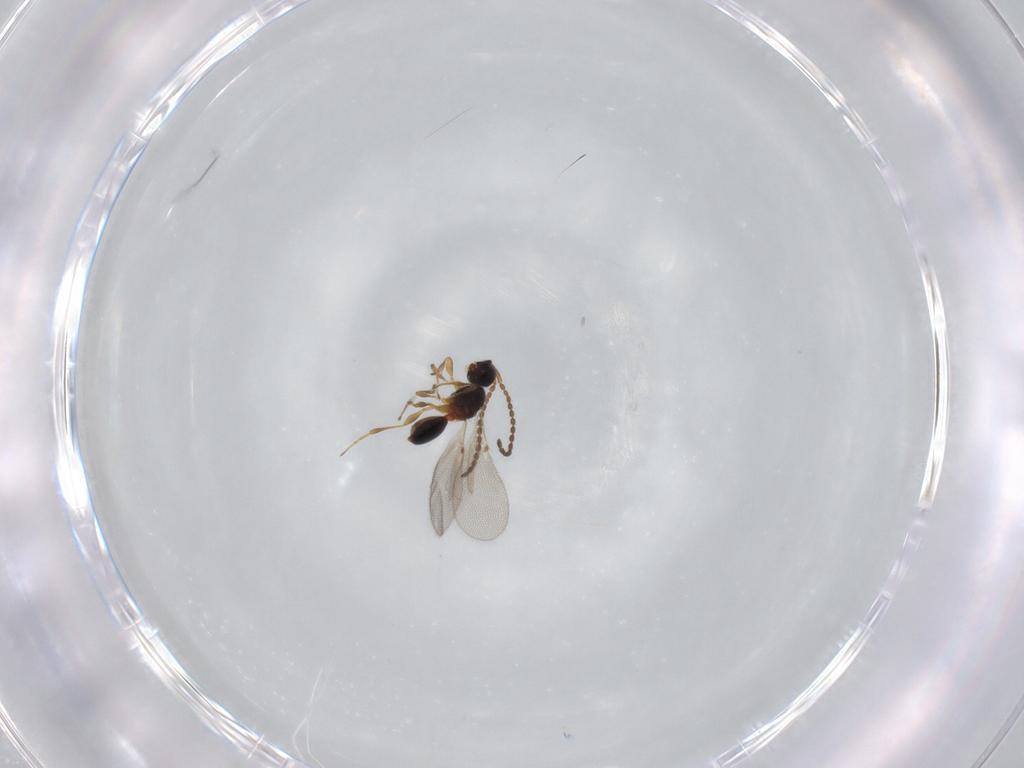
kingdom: Animalia
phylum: Arthropoda
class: Insecta
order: Hymenoptera
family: Diapriidae
